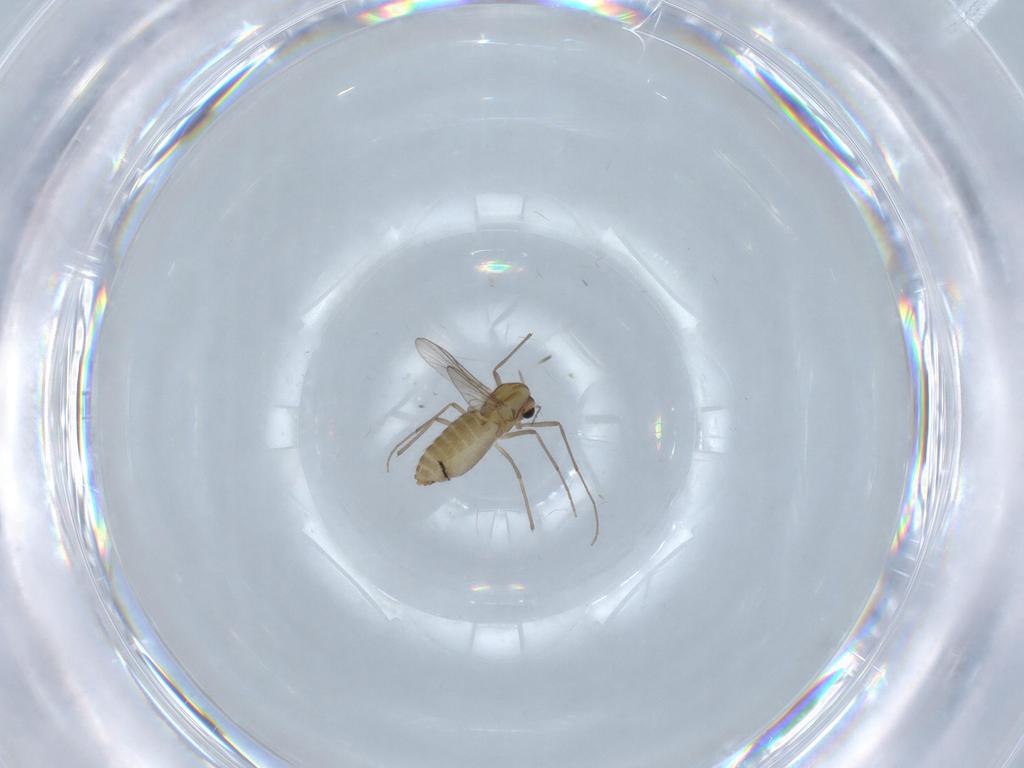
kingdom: Animalia
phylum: Arthropoda
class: Insecta
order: Diptera
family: Chironomidae
